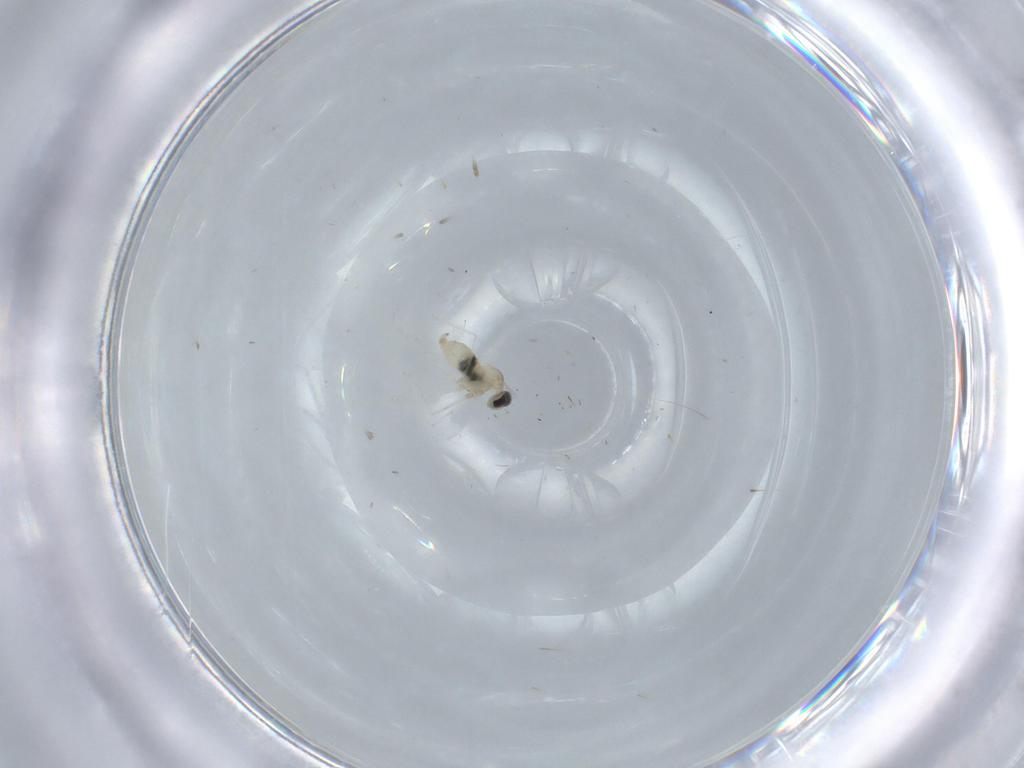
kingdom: Animalia
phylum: Arthropoda
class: Insecta
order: Diptera
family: Cecidomyiidae
